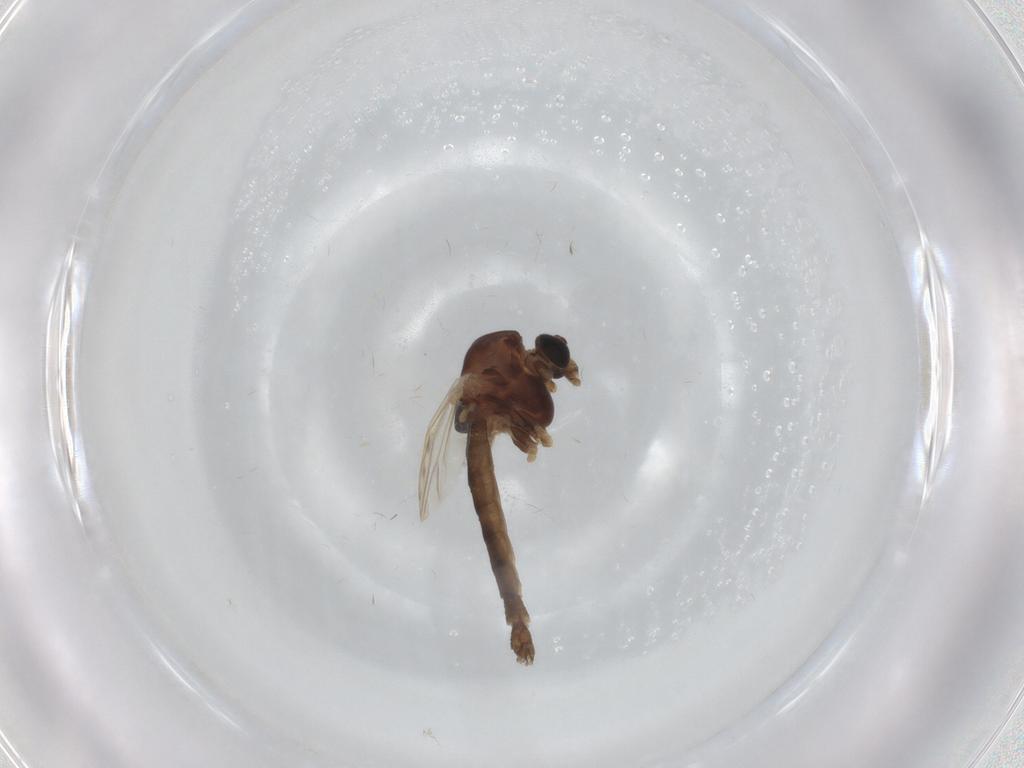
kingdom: Animalia
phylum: Arthropoda
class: Insecta
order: Diptera
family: Chironomidae
